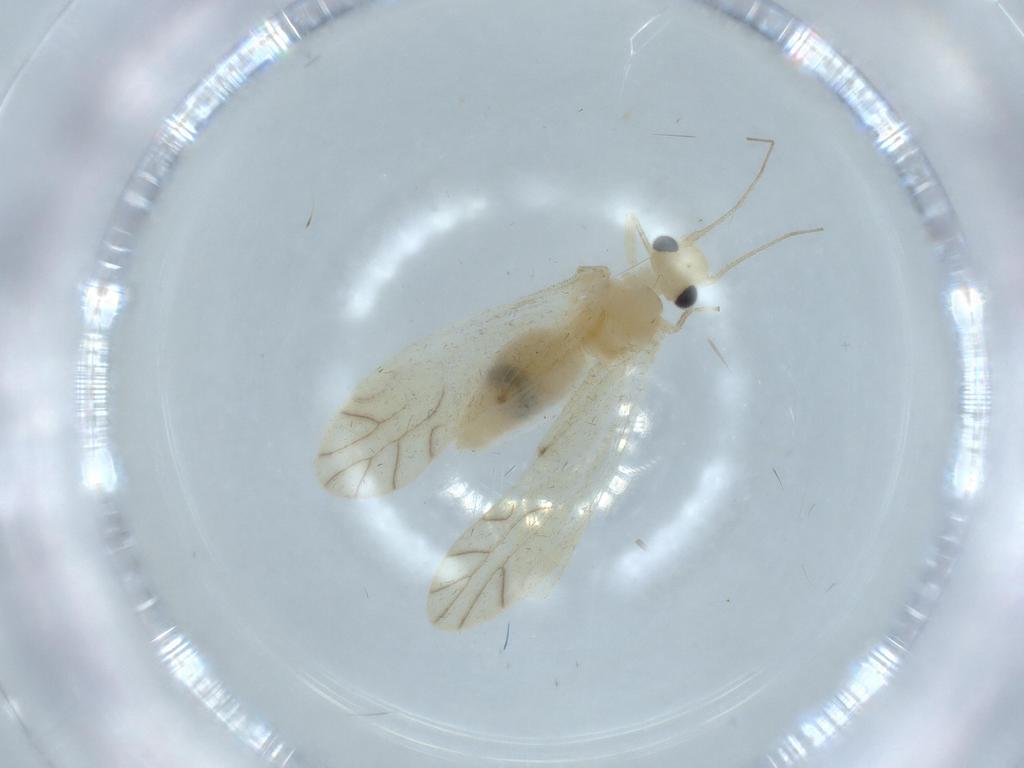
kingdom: Animalia
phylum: Arthropoda
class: Insecta
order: Psocodea
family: Caeciliusidae
